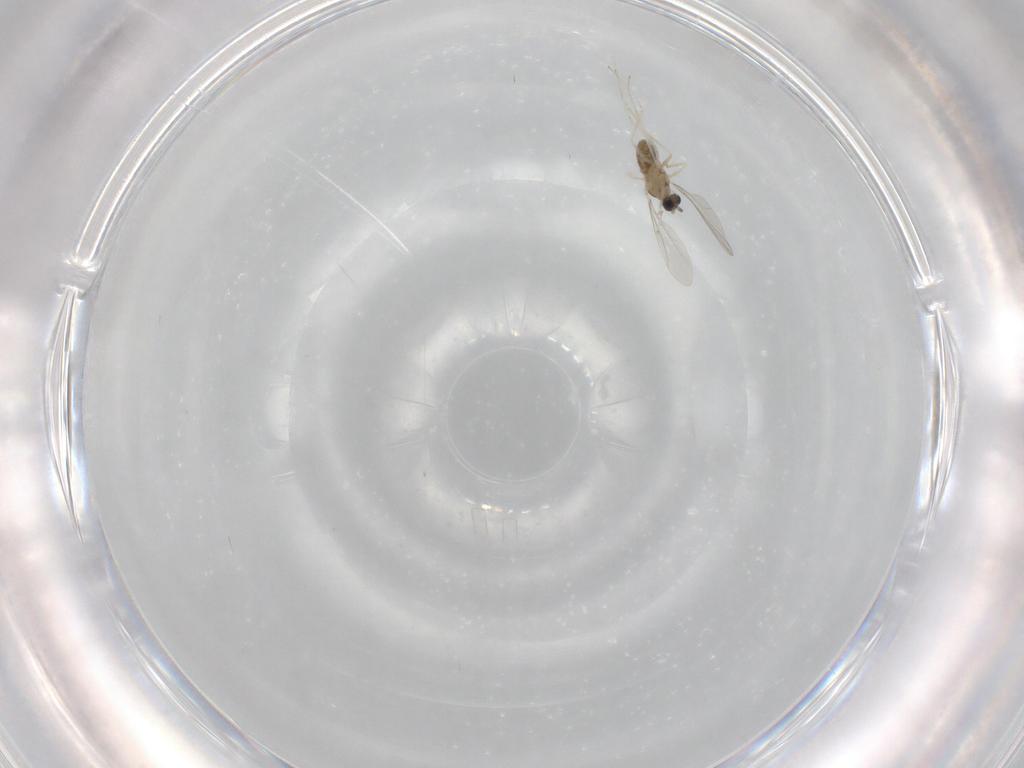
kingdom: Animalia
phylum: Arthropoda
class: Insecta
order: Diptera
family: Cecidomyiidae
